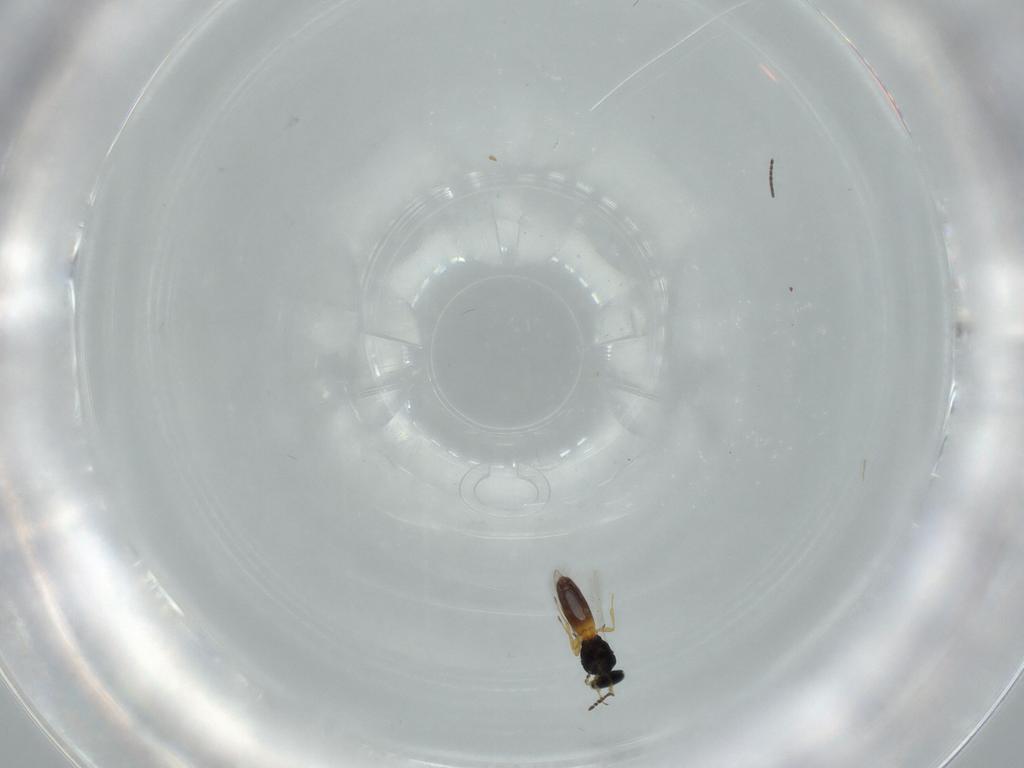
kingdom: Animalia
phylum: Arthropoda
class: Insecta
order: Hymenoptera
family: Scelionidae
